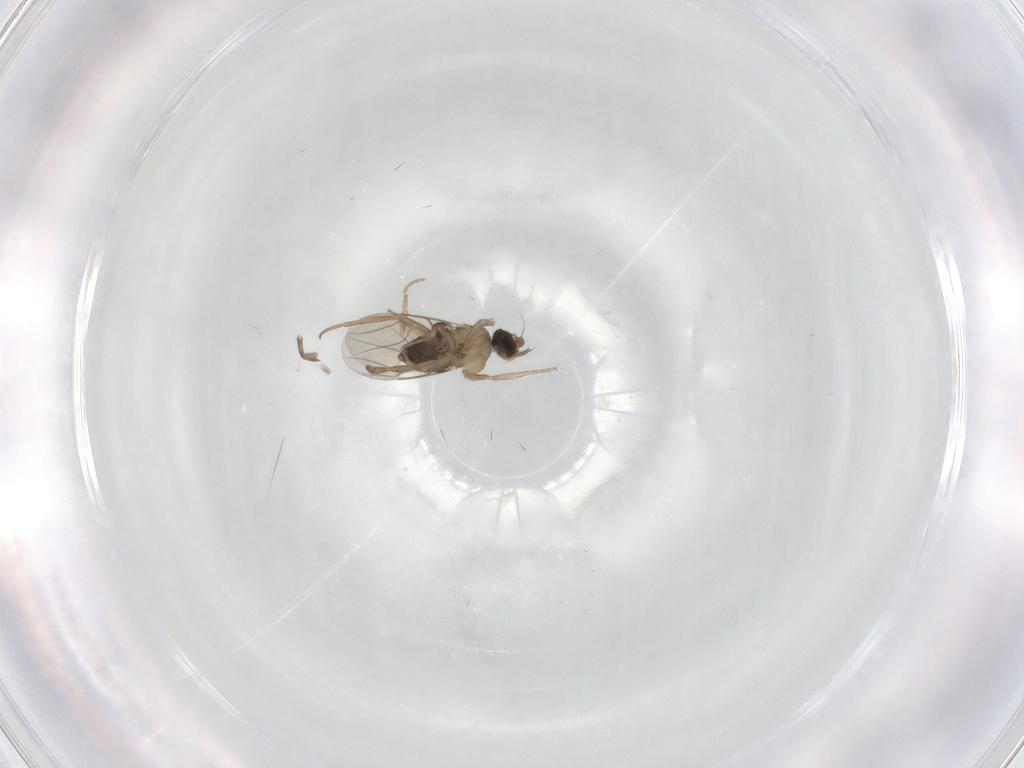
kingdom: Animalia
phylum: Arthropoda
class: Insecta
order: Diptera
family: Phoridae
